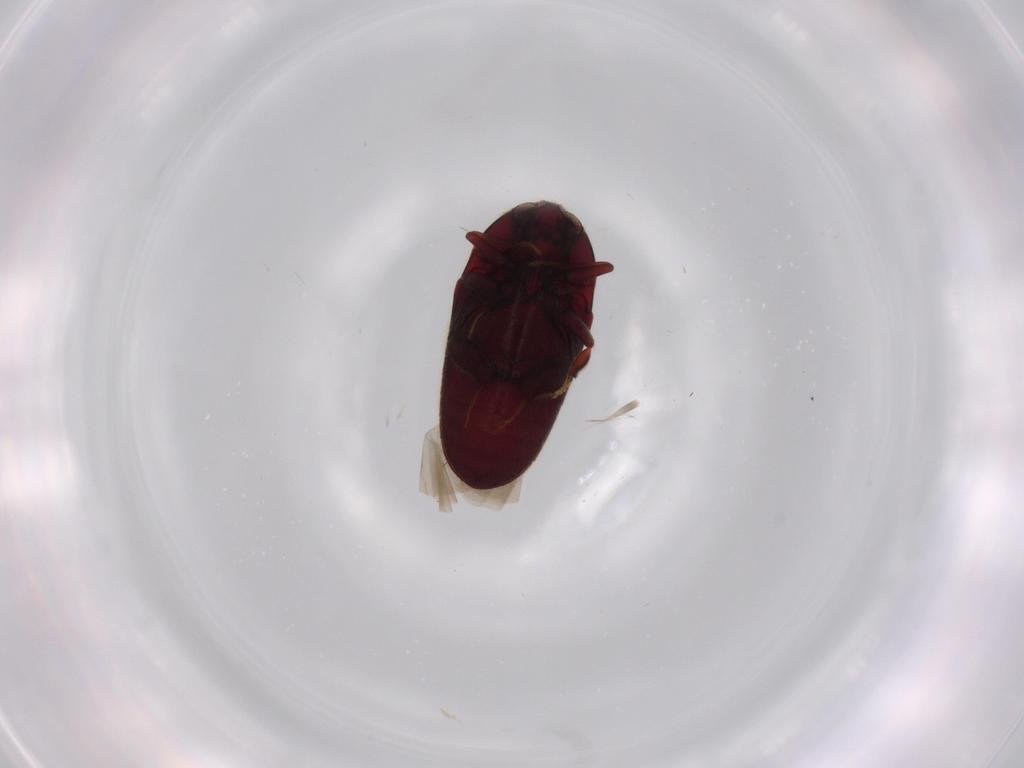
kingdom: Animalia
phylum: Arthropoda
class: Insecta
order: Coleoptera
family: Throscidae
